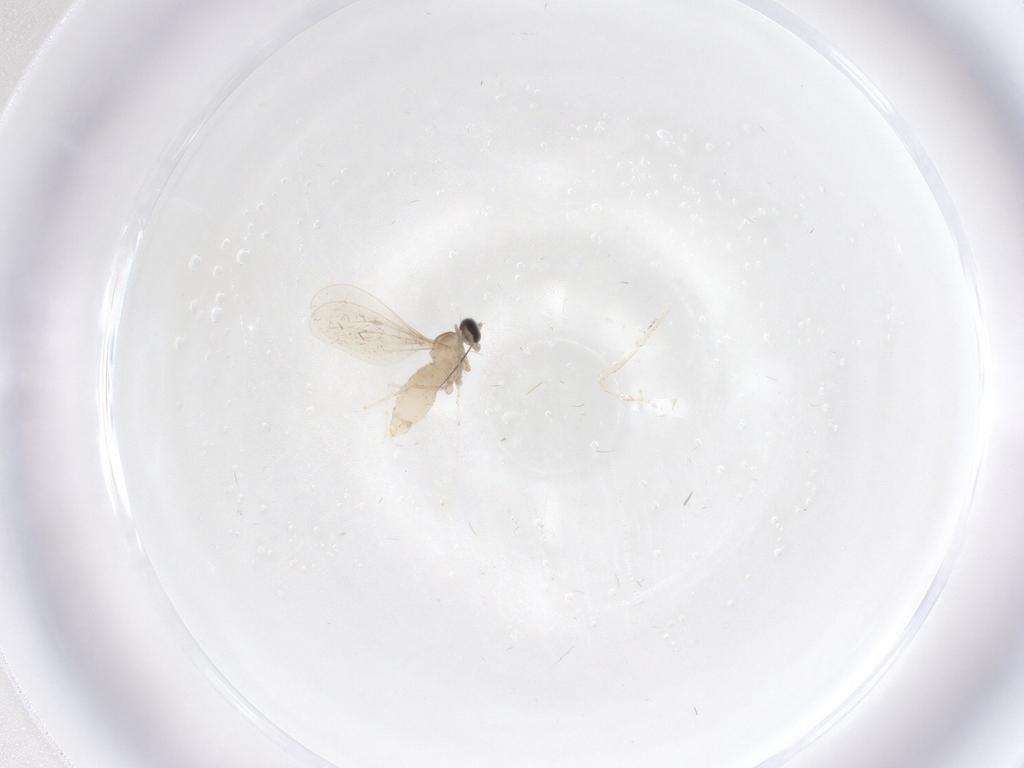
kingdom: Animalia
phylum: Arthropoda
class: Insecta
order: Diptera
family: Cecidomyiidae
